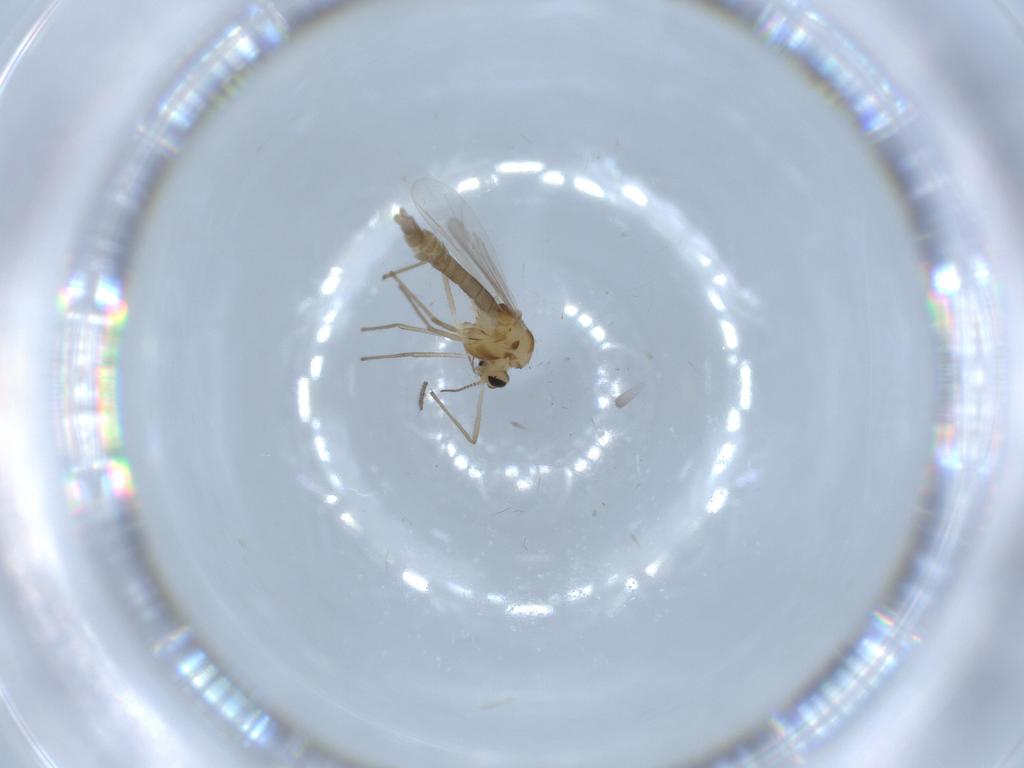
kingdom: Animalia
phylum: Arthropoda
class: Insecta
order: Diptera
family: Chironomidae
